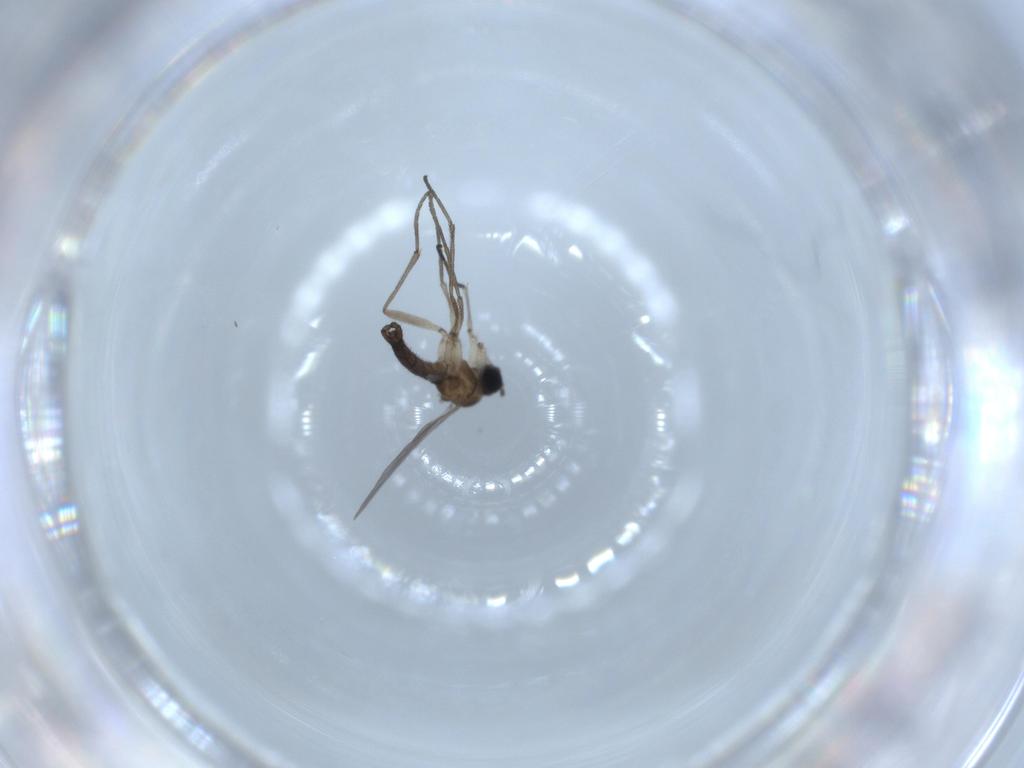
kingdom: Animalia
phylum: Arthropoda
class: Insecta
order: Diptera
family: Sciaridae
